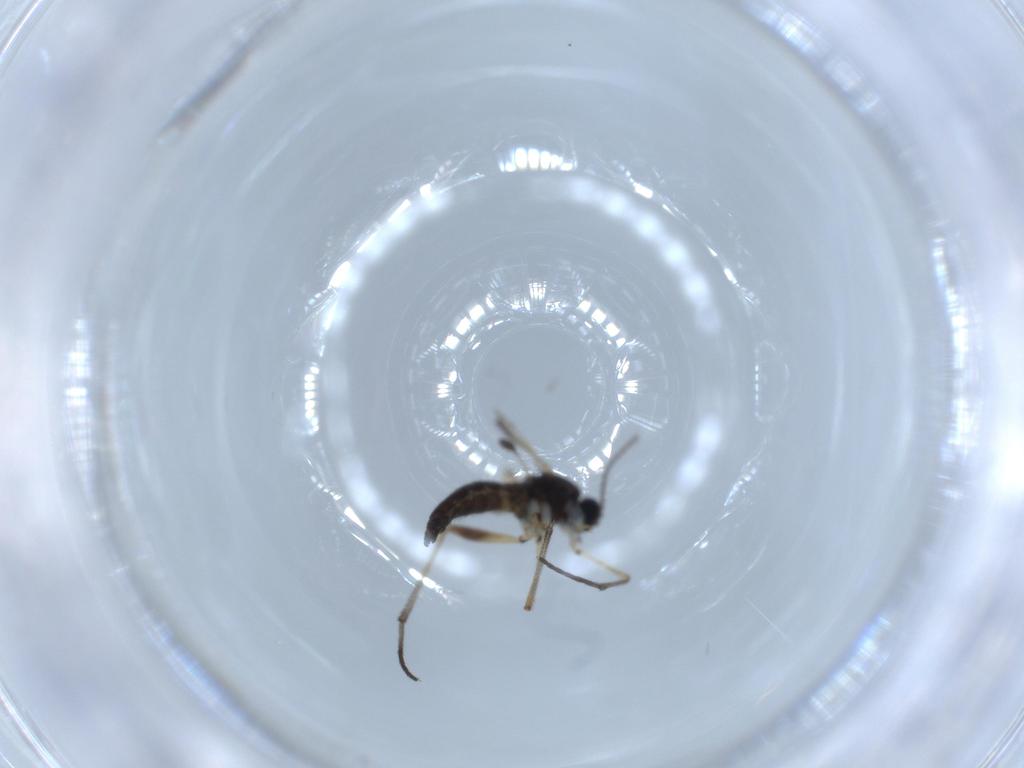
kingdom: Animalia
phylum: Arthropoda
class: Insecta
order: Diptera
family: Sciaridae
